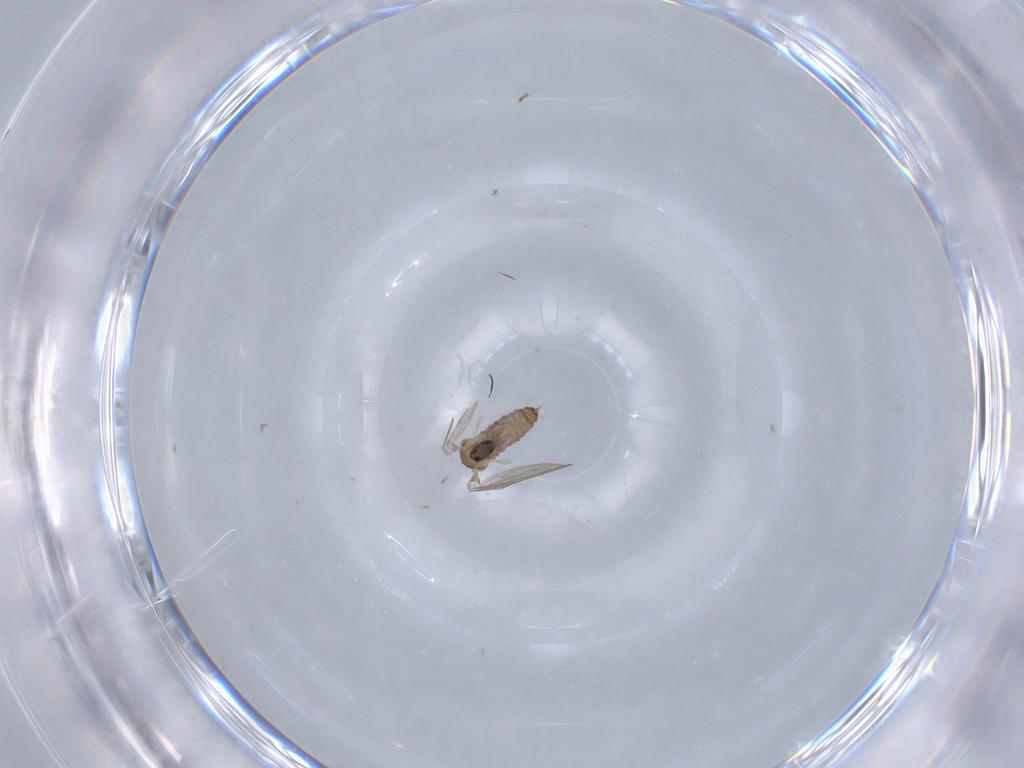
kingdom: Animalia
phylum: Arthropoda
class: Insecta
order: Diptera
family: Psychodidae
